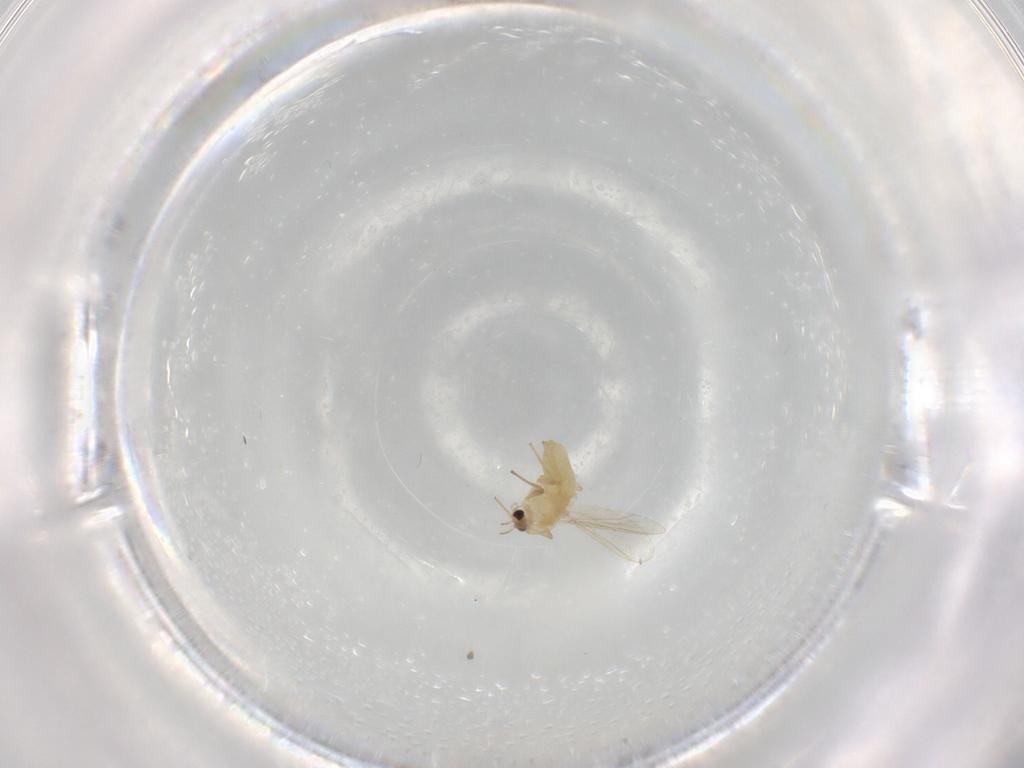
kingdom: Animalia
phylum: Arthropoda
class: Insecta
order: Diptera
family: Chironomidae
